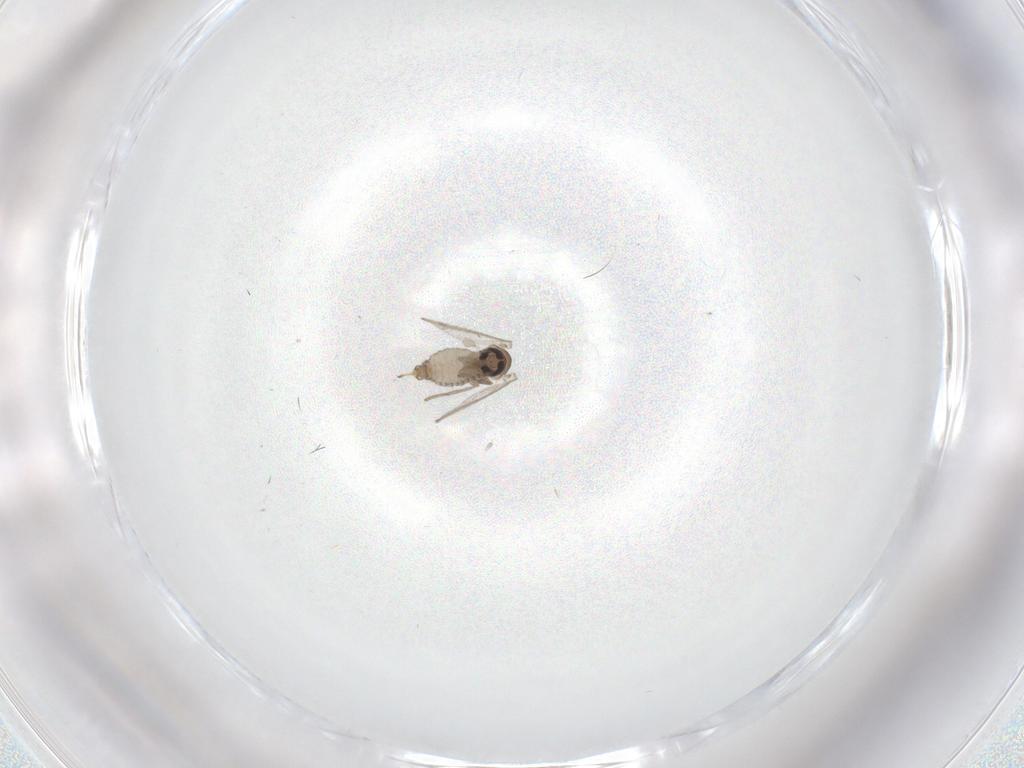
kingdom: Animalia
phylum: Arthropoda
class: Insecta
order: Diptera
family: Psychodidae
